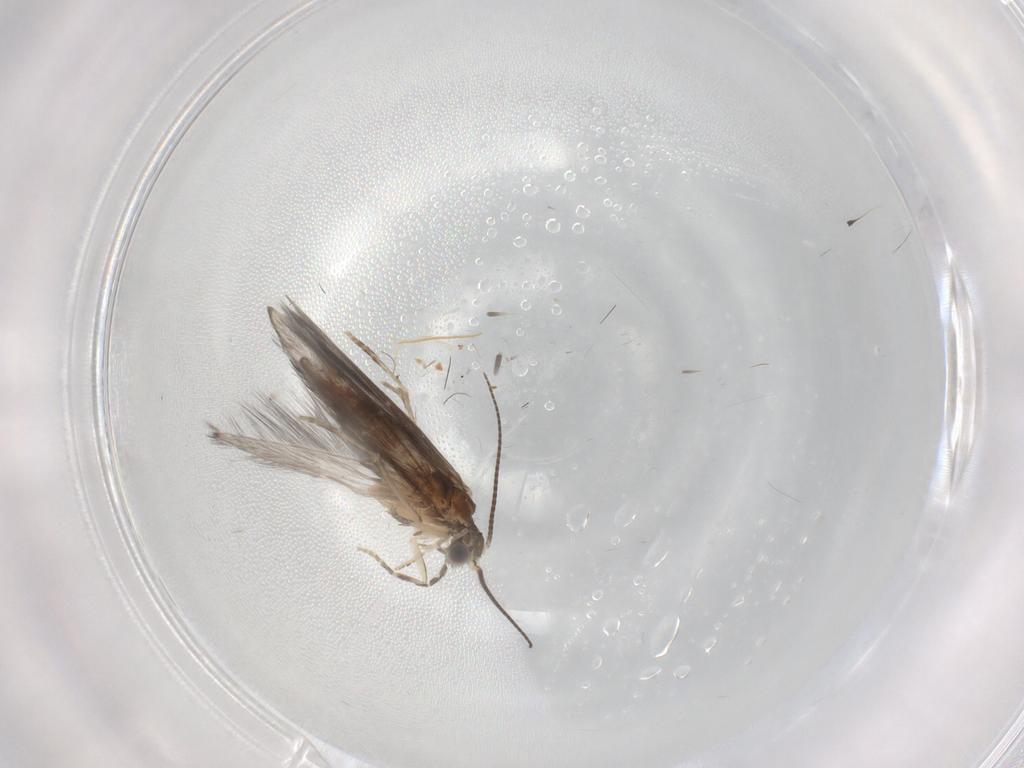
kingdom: Animalia
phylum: Arthropoda
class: Insecta
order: Trichoptera
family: Hydroptilidae
